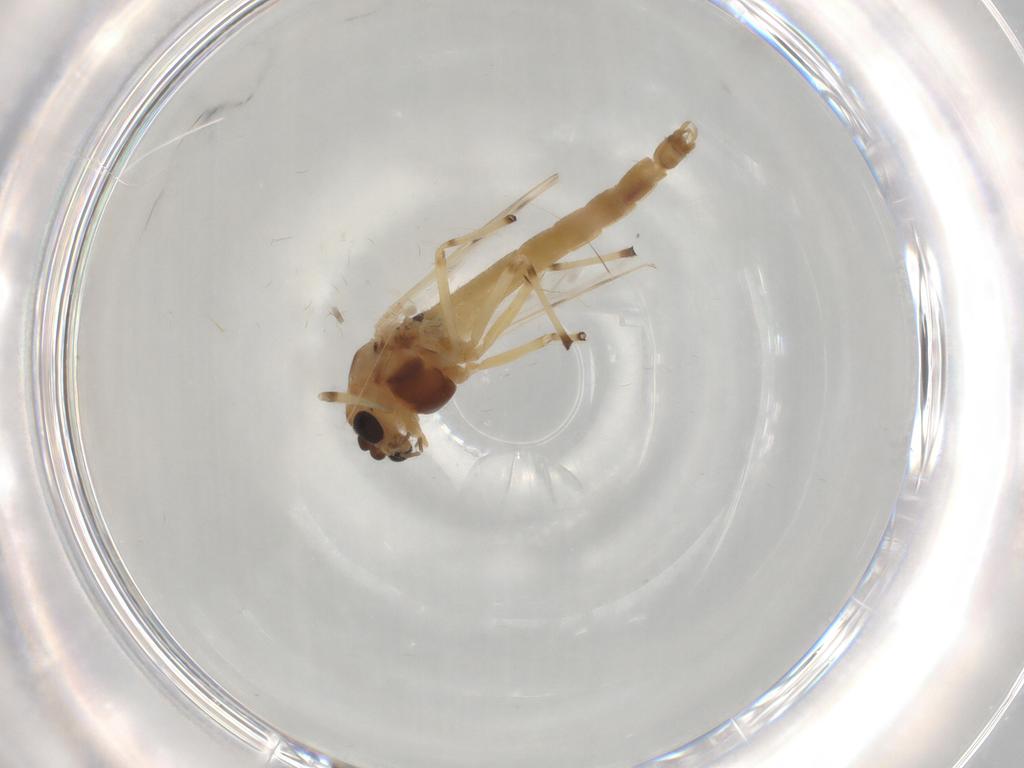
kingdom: Animalia
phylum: Arthropoda
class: Insecta
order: Diptera
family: Chironomidae
